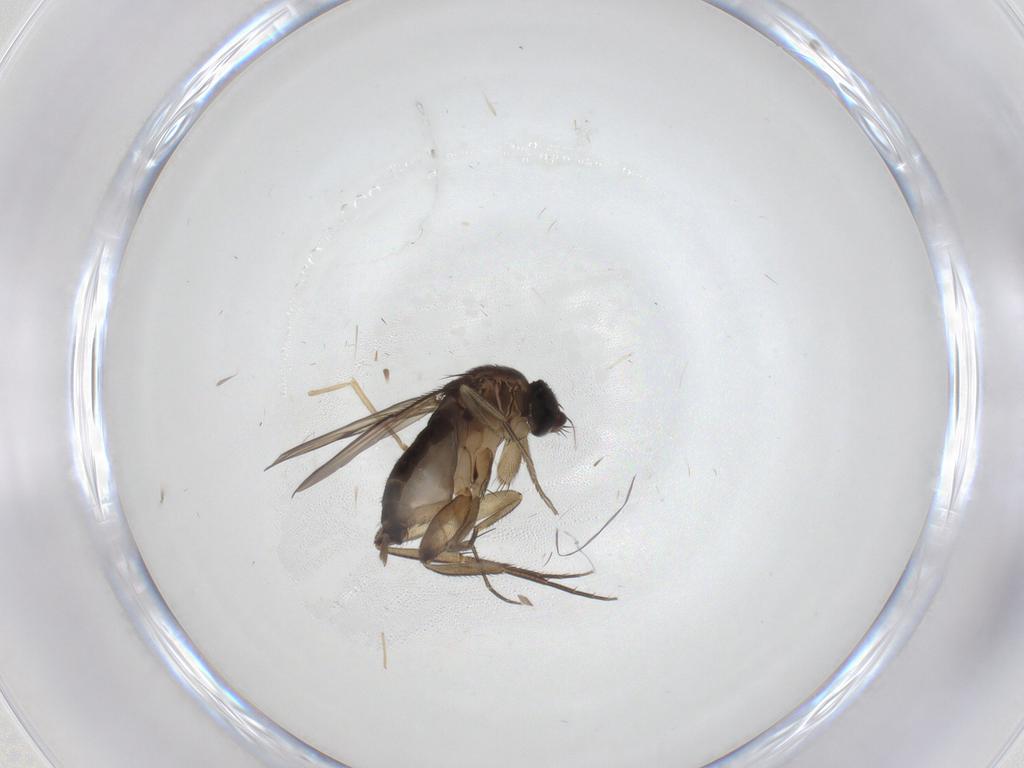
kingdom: Animalia
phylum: Arthropoda
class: Insecta
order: Diptera
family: Phoridae
